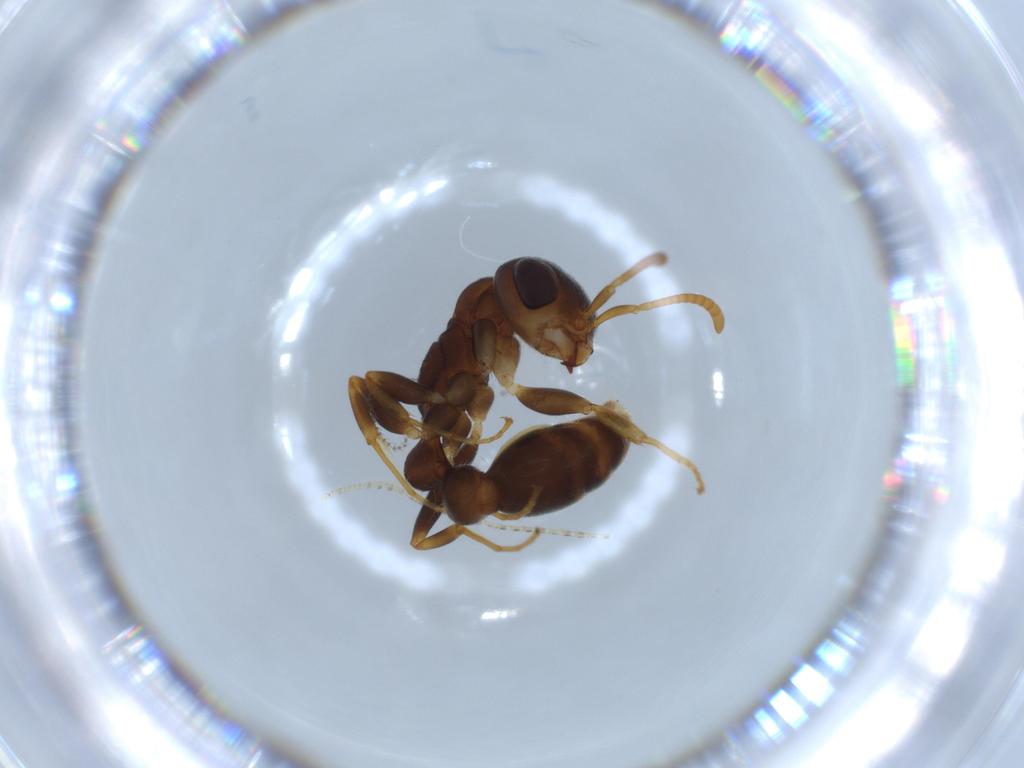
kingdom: Animalia
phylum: Arthropoda
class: Insecta
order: Hymenoptera
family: Formicidae
